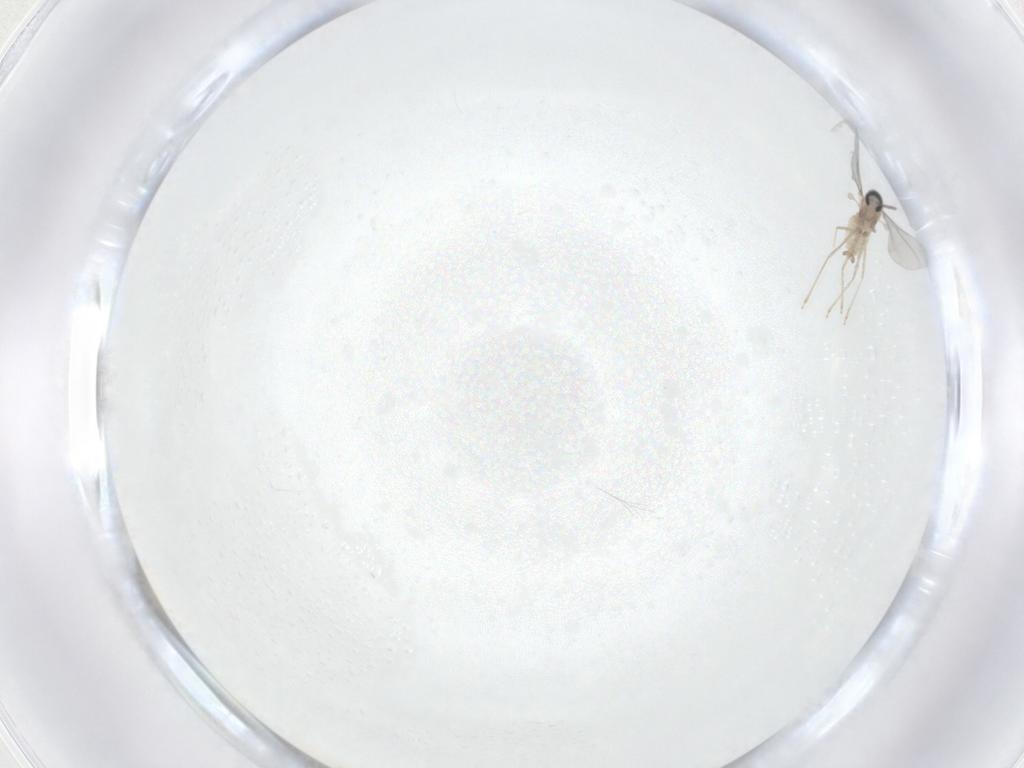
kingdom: Animalia
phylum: Arthropoda
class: Insecta
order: Diptera
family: Cecidomyiidae
